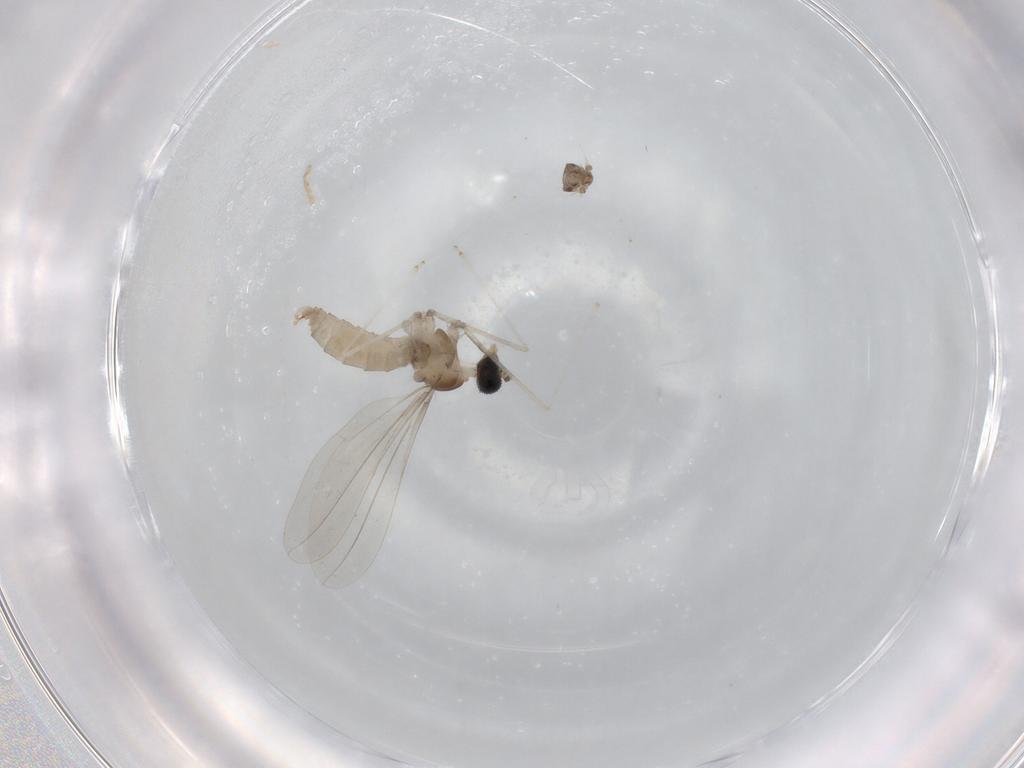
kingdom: Animalia
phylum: Arthropoda
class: Insecta
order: Diptera
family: Cecidomyiidae
